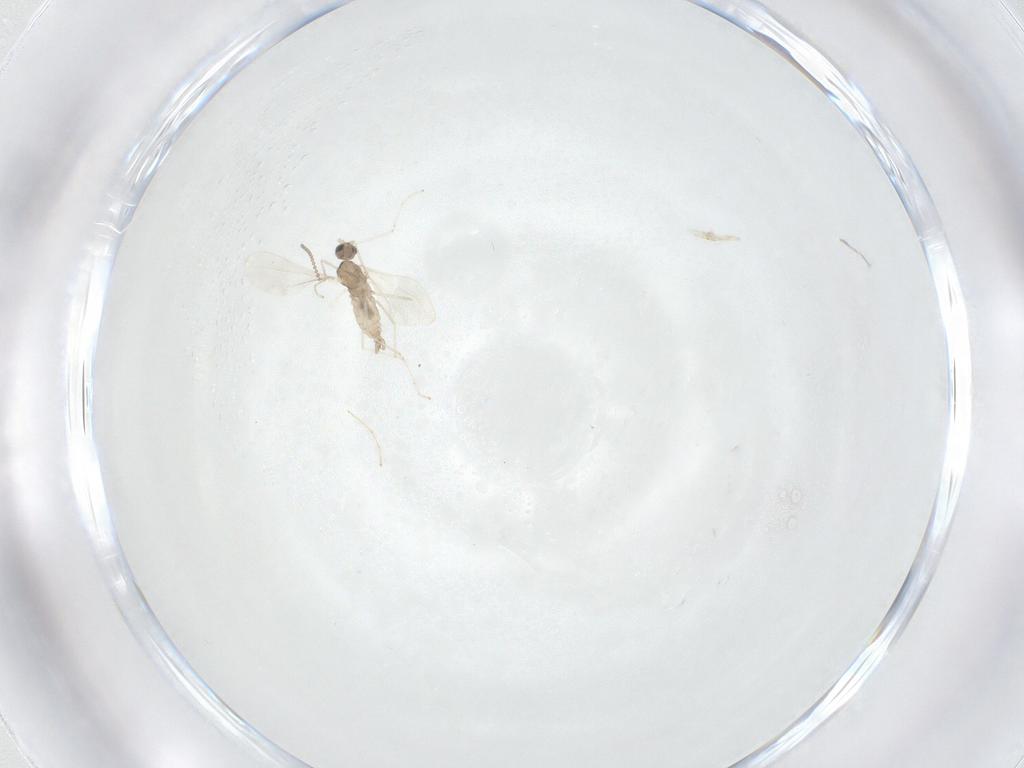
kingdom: Animalia
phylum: Arthropoda
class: Insecta
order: Diptera
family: Cecidomyiidae
